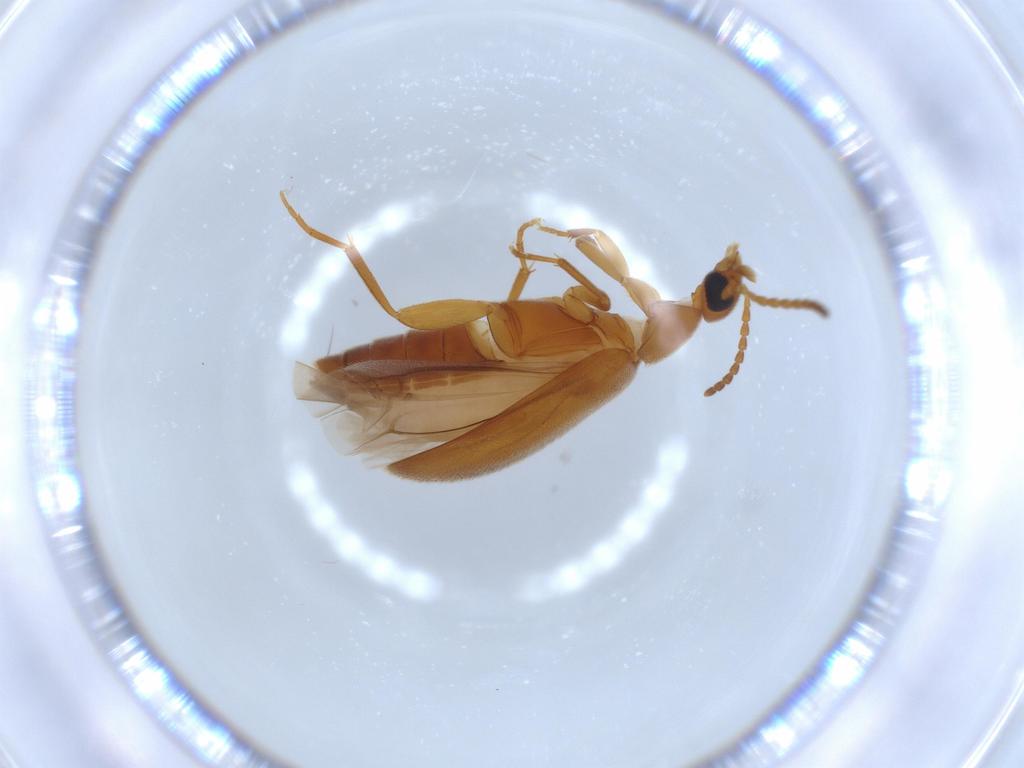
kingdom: Animalia
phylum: Arthropoda
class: Insecta
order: Coleoptera
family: Scraptiidae
